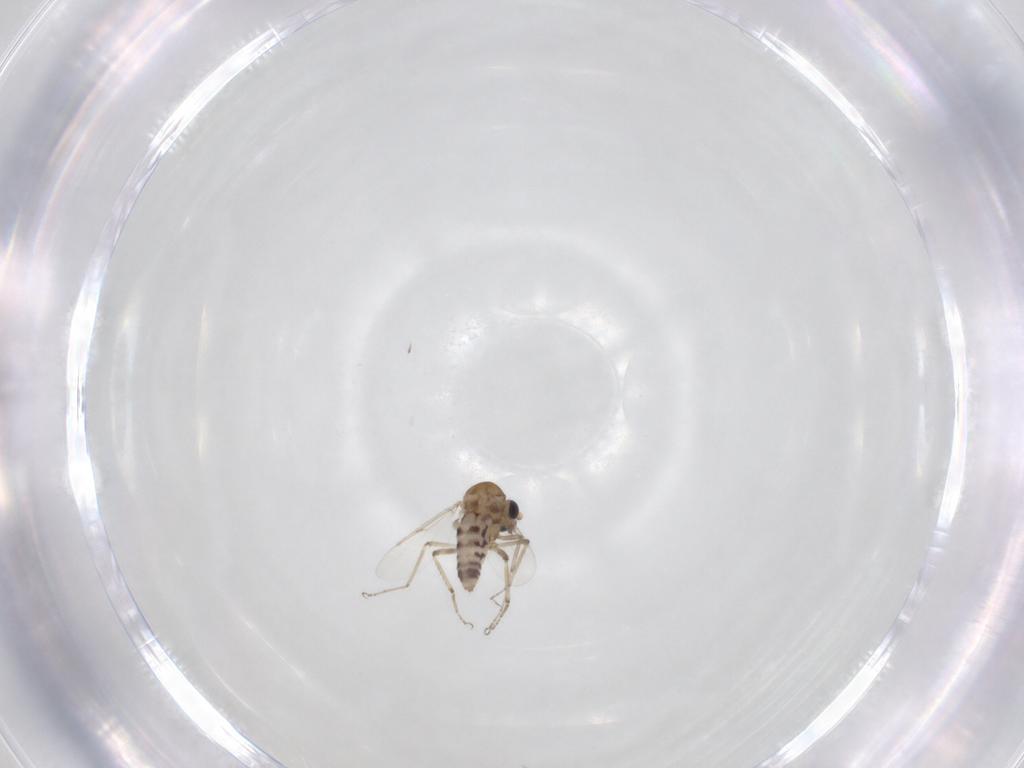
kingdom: Animalia
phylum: Arthropoda
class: Insecta
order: Diptera
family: Ceratopogonidae
